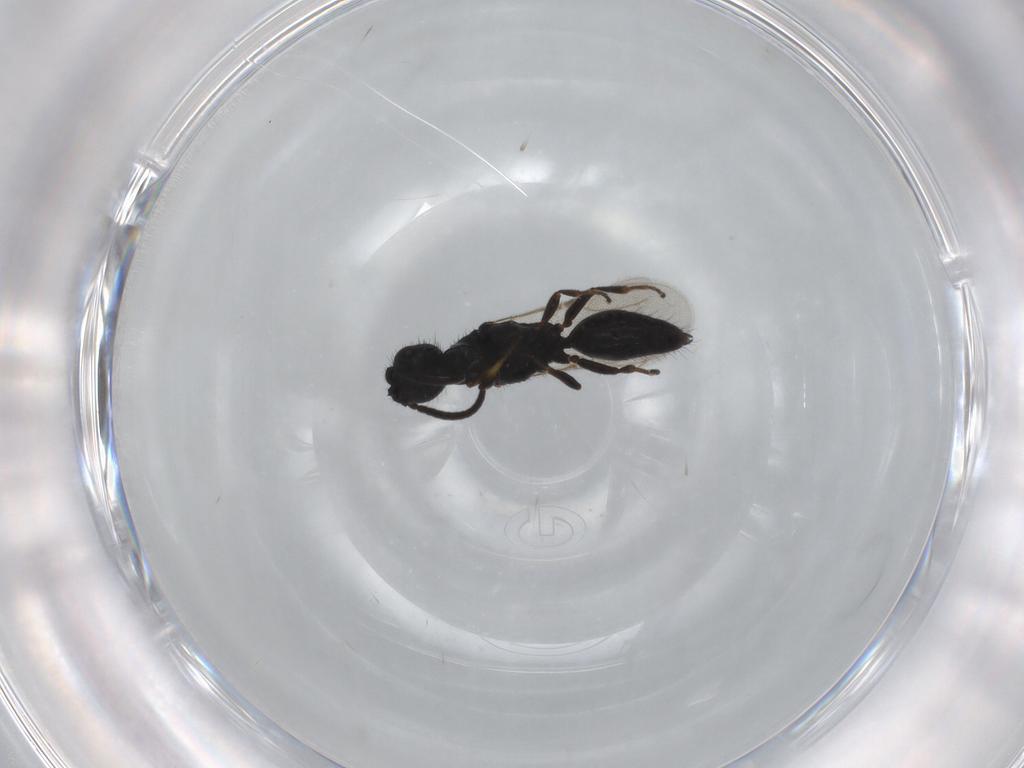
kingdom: Animalia
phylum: Arthropoda
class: Insecta
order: Hymenoptera
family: Bethylidae
